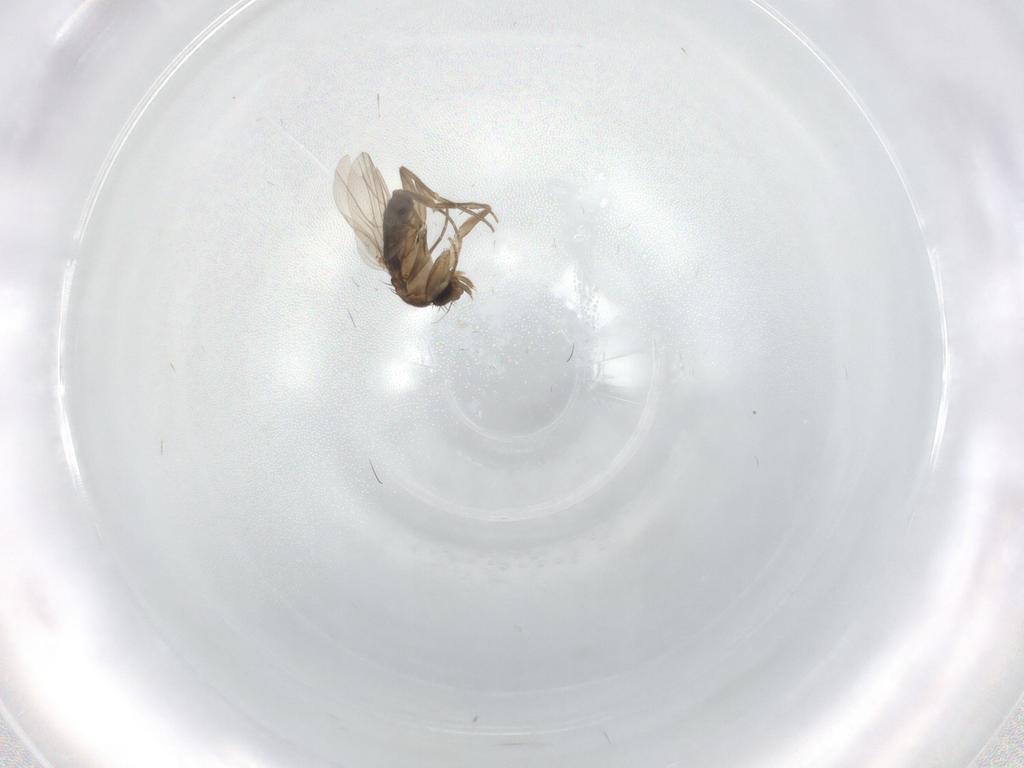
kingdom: Animalia
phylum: Arthropoda
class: Insecta
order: Diptera
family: Phoridae
